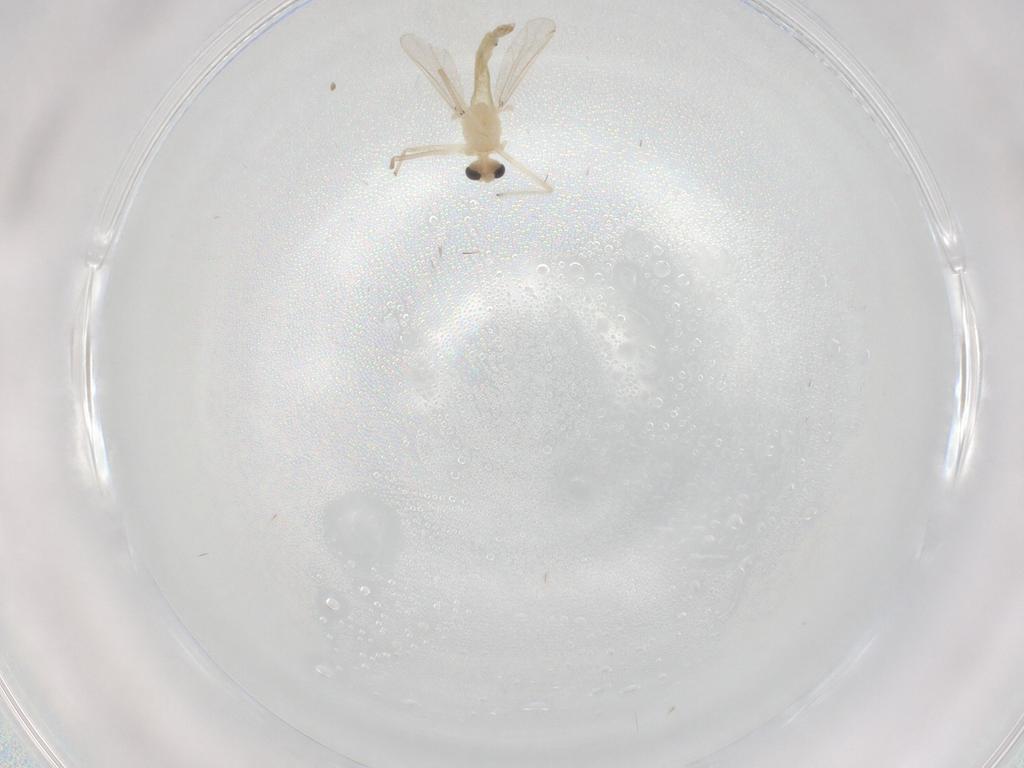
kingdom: Animalia
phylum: Arthropoda
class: Insecta
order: Diptera
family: Chironomidae
